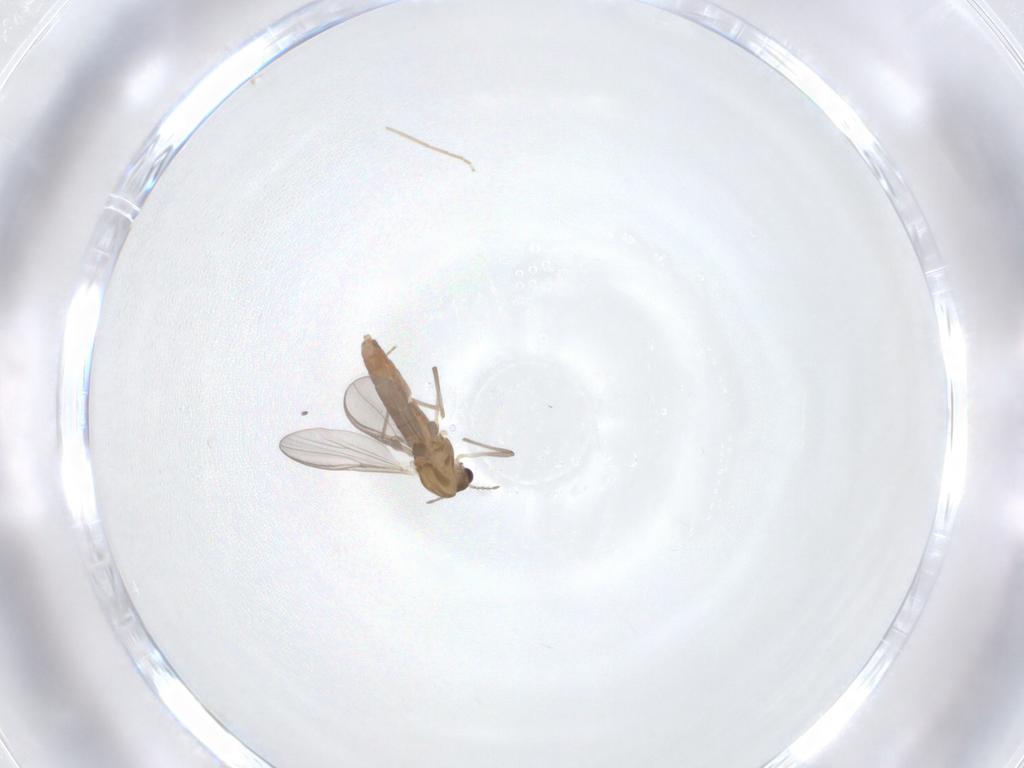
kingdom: Animalia
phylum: Arthropoda
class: Insecta
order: Diptera
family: Chironomidae
